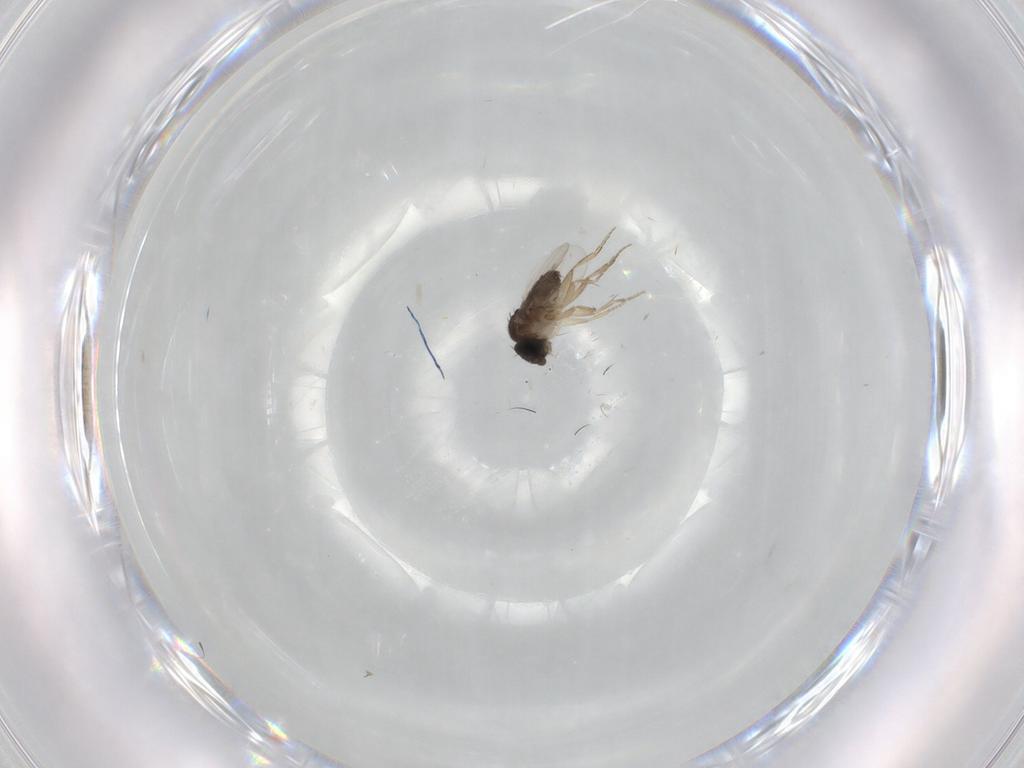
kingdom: Animalia
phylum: Arthropoda
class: Insecta
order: Diptera
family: Phoridae
